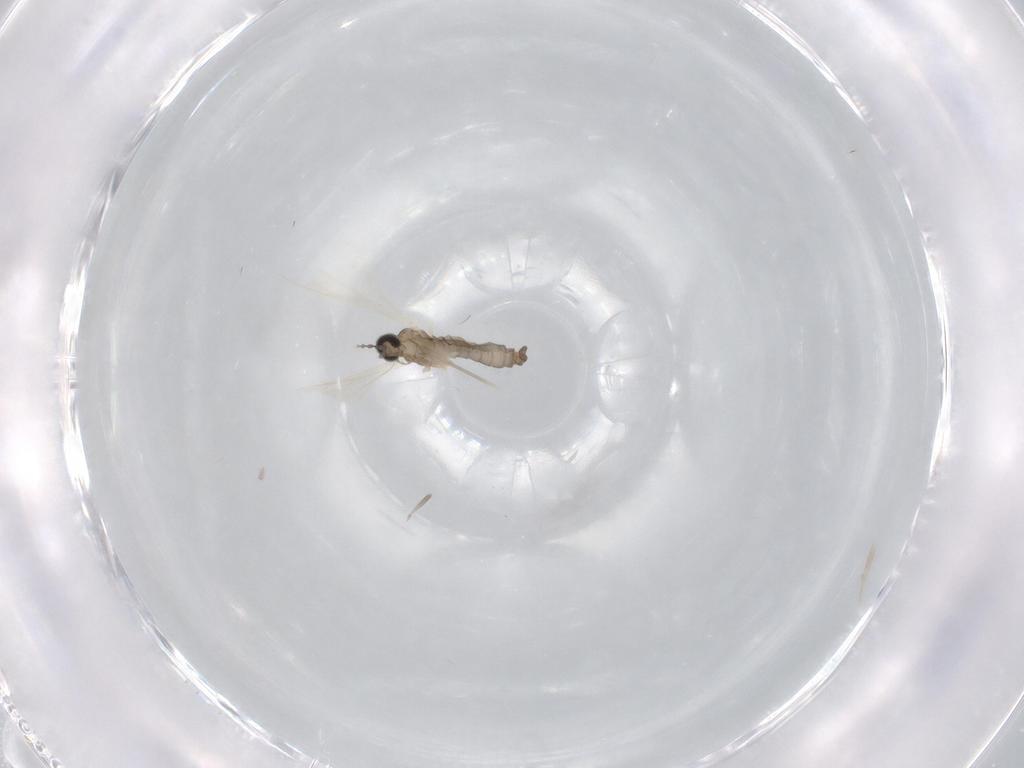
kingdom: Animalia
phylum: Arthropoda
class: Insecta
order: Diptera
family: Cecidomyiidae
